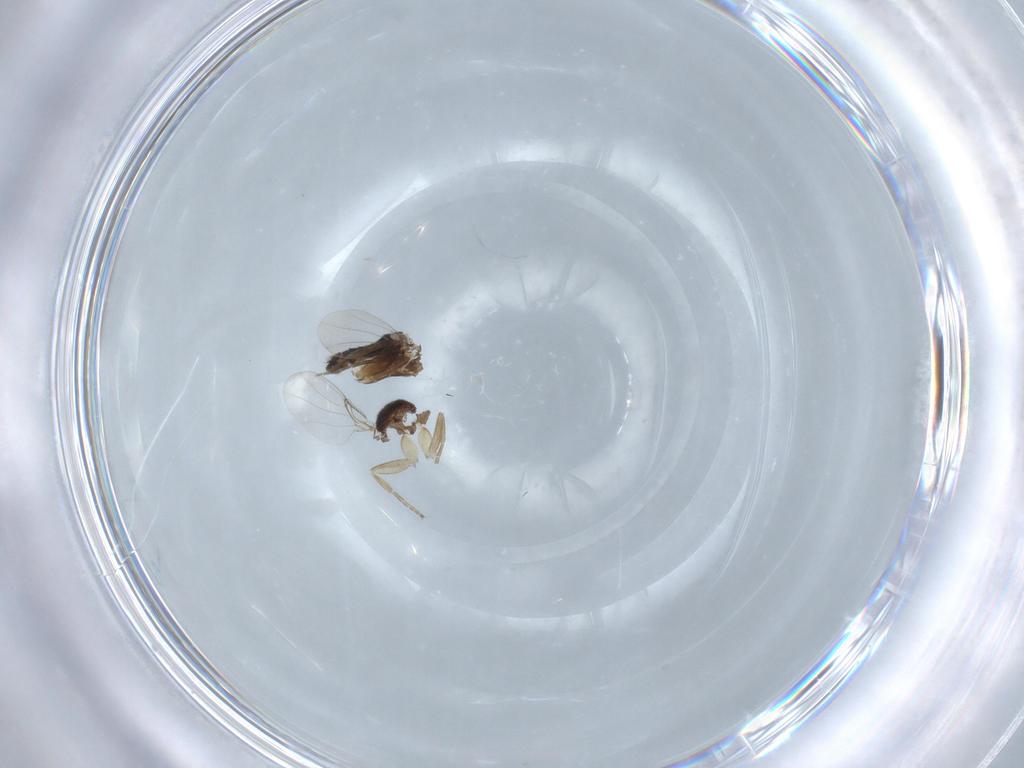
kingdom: Animalia
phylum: Arthropoda
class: Insecta
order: Diptera
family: Phoridae
